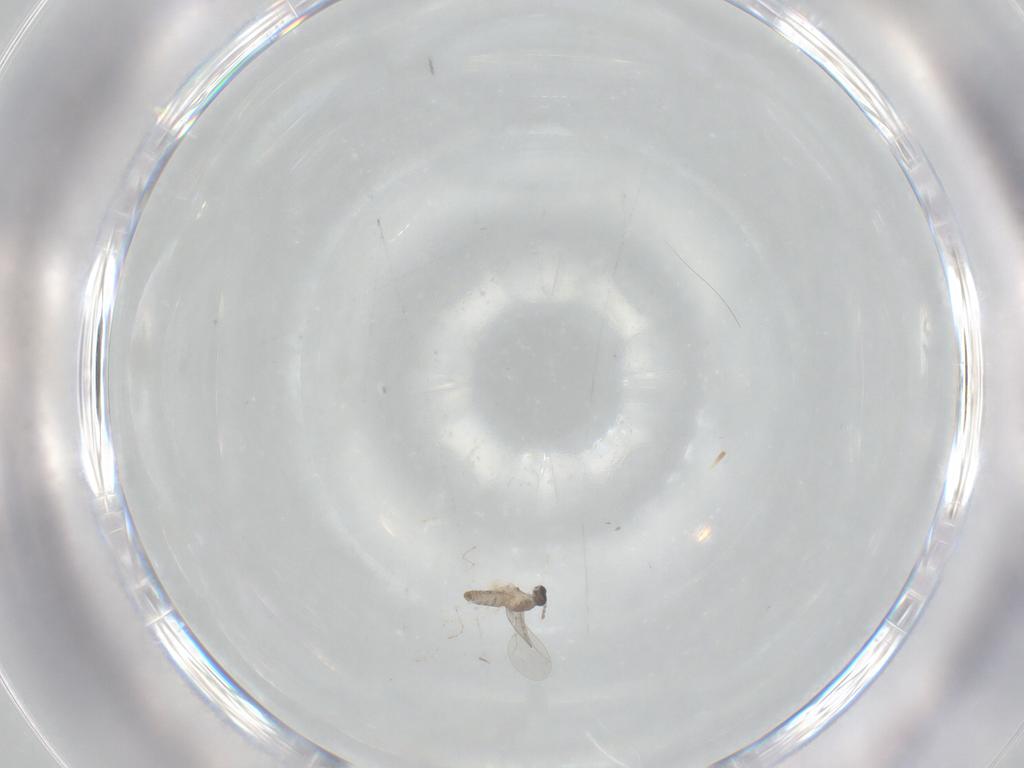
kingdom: Animalia
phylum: Arthropoda
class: Insecta
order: Diptera
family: Cecidomyiidae
